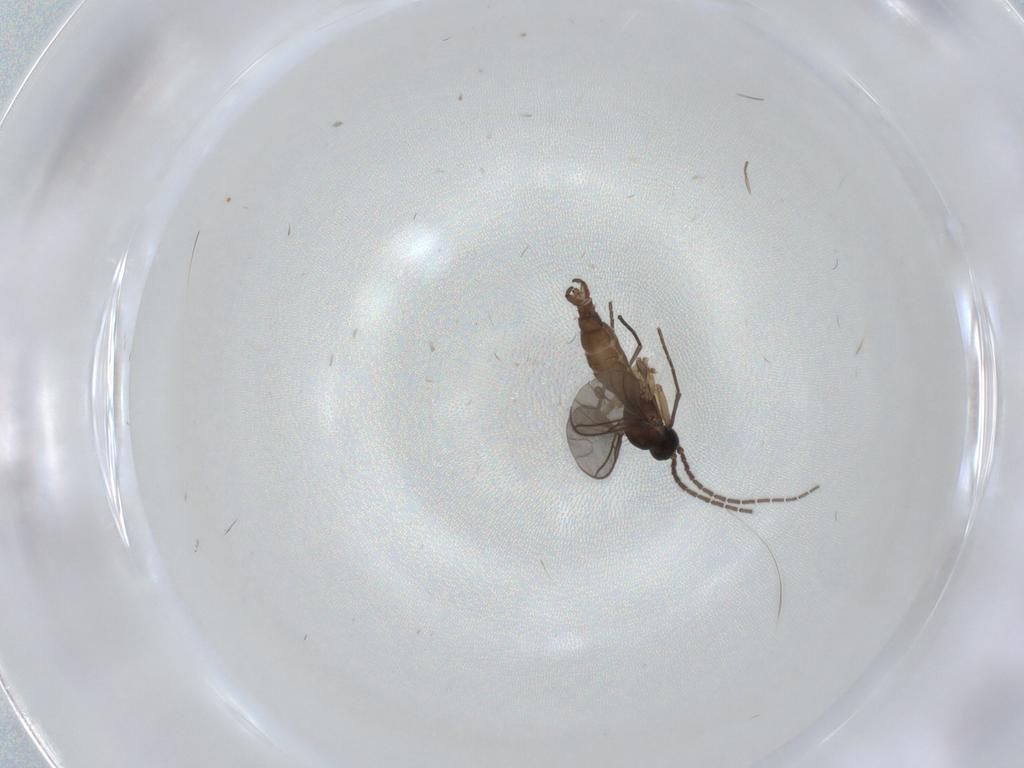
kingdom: Animalia
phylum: Arthropoda
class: Insecta
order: Diptera
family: Sciaridae
